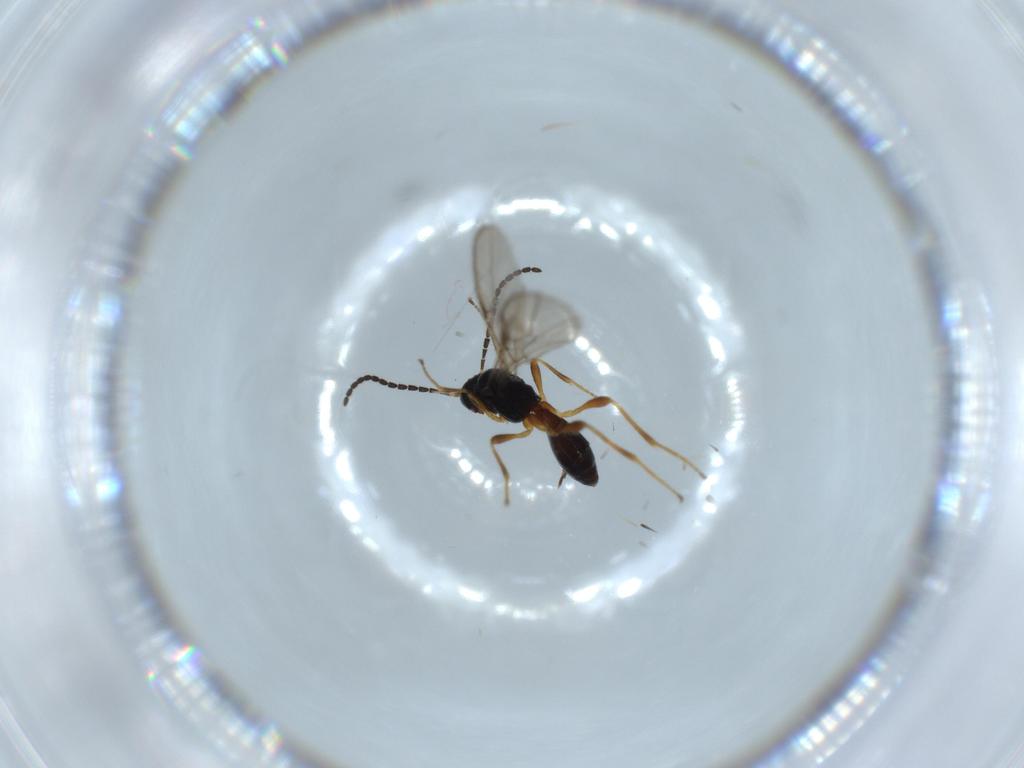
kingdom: Animalia
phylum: Arthropoda
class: Insecta
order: Hymenoptera
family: Braconidae
